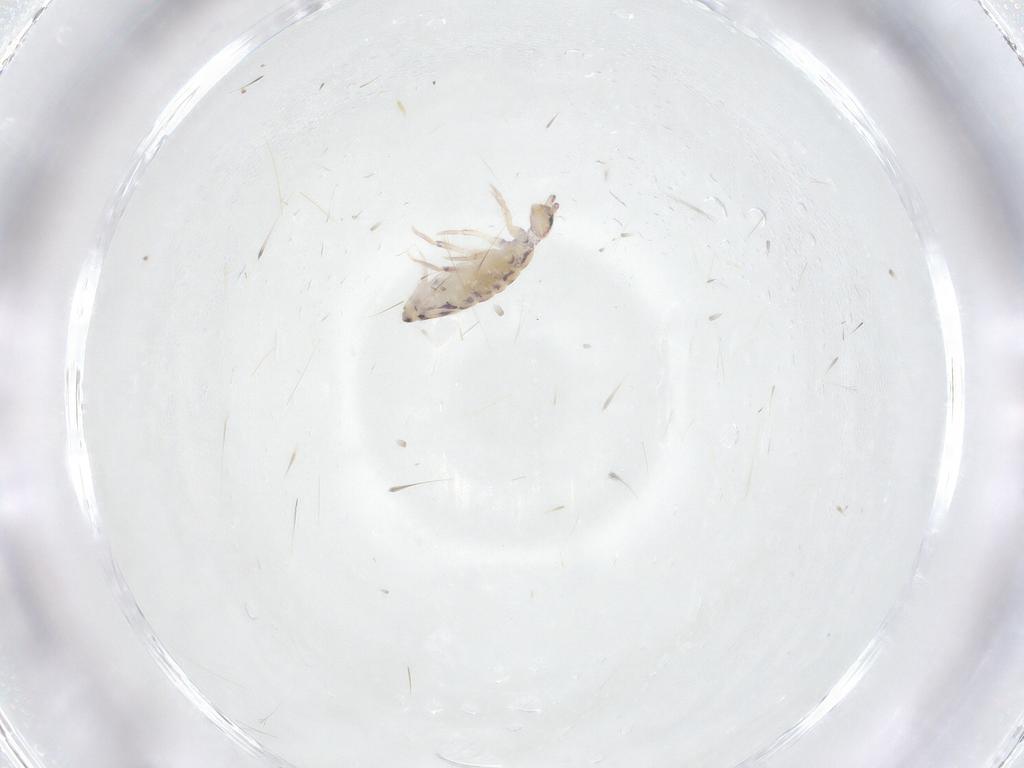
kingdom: Animalia
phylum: Arthropoda
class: Collembola
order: Entomobryomorpha
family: Entomobryidae
